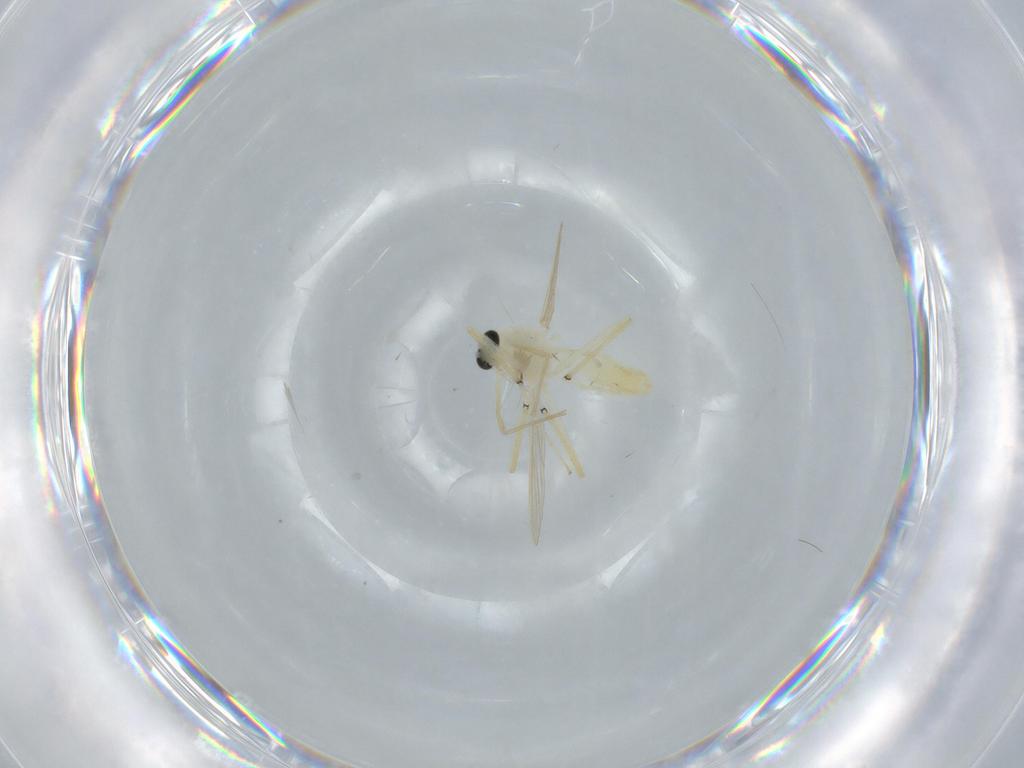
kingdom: Animalia
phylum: Arthropoda
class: Insecta
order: Diptera
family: Chironomidae
